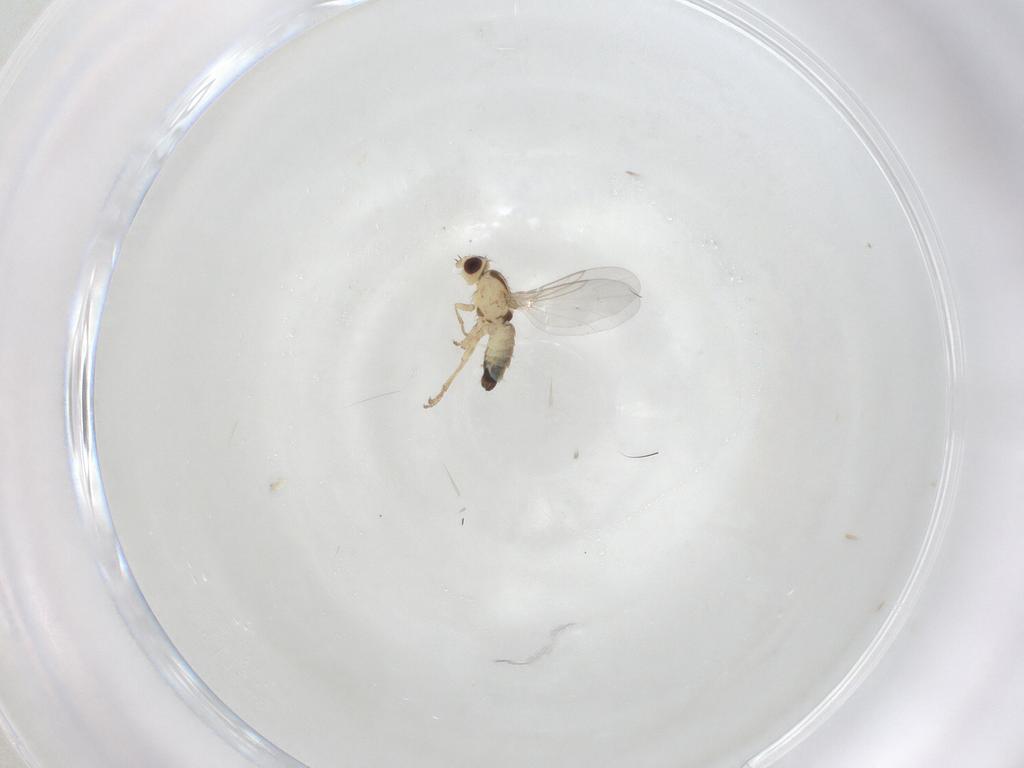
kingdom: Animalia
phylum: Arthropoda
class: Insecta
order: Diptera
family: Agromyzidae
